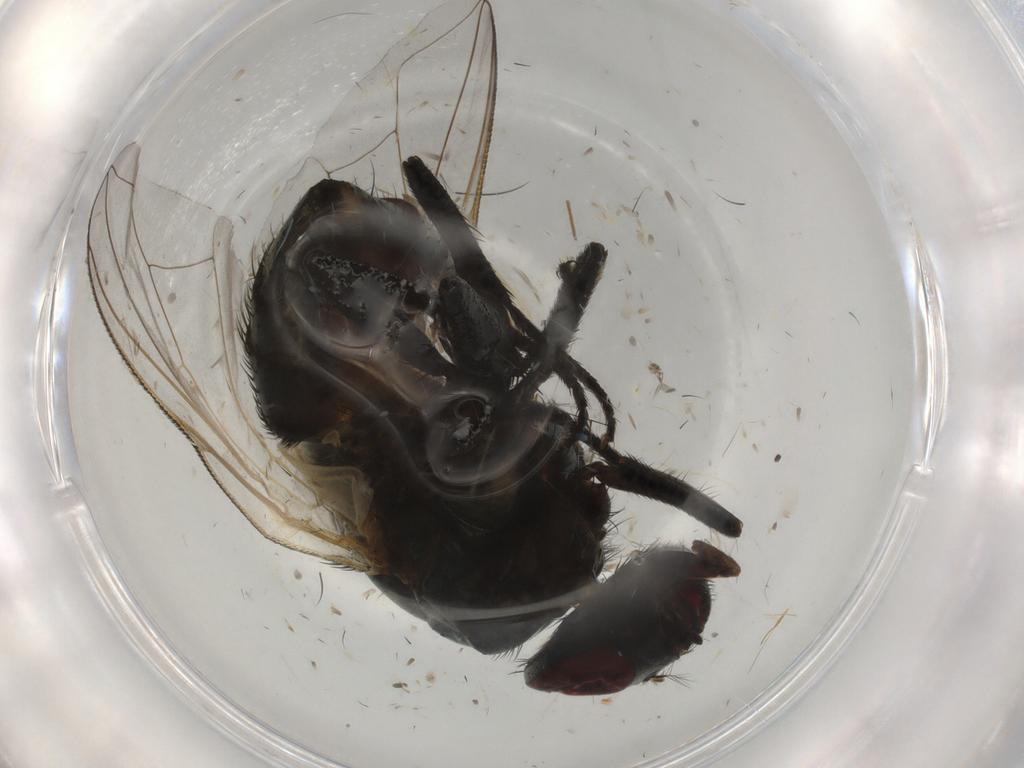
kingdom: Animalia
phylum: Arthropoda
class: Insecta
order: Diptera
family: Muscidae
